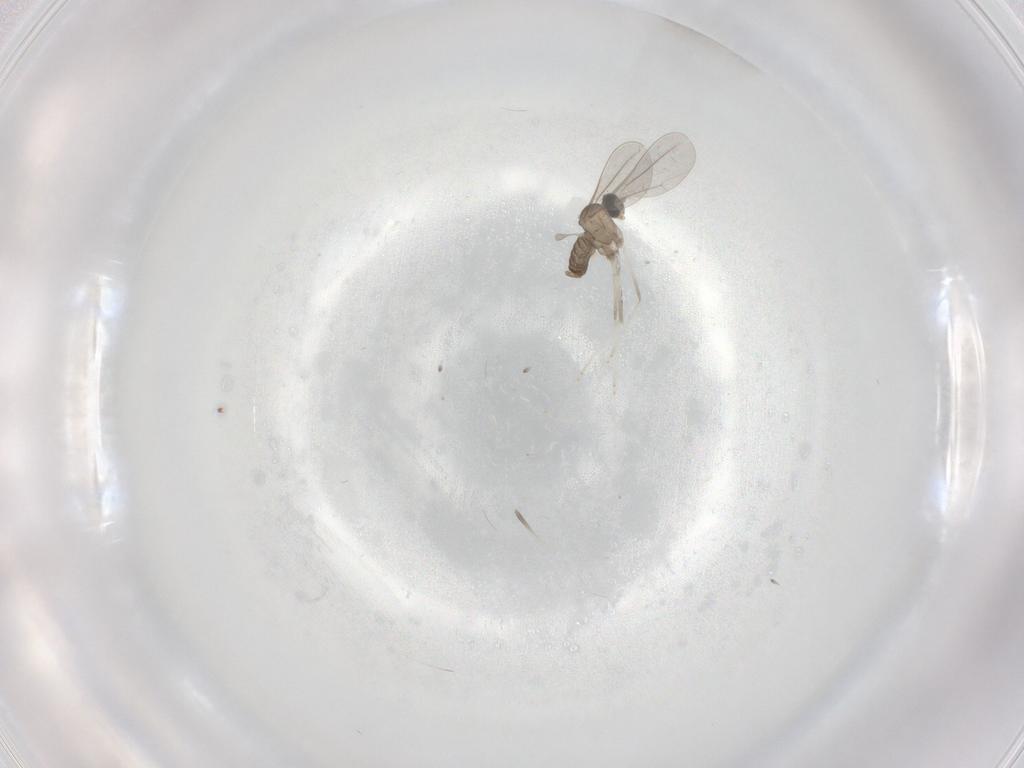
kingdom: Animalia
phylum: Arthropoda
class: Insecta
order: Diptera
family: Cecidomyiidae
